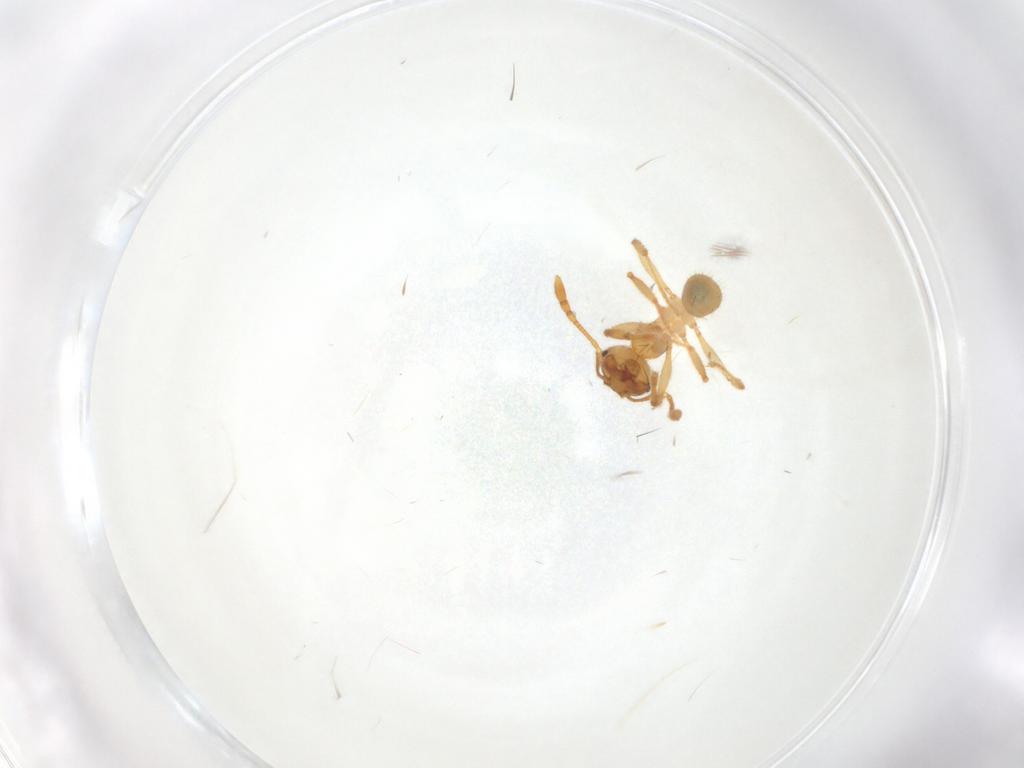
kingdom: Animalia
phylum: Arthropoda
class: Insecta
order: Hymenoptera
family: Formicidae
